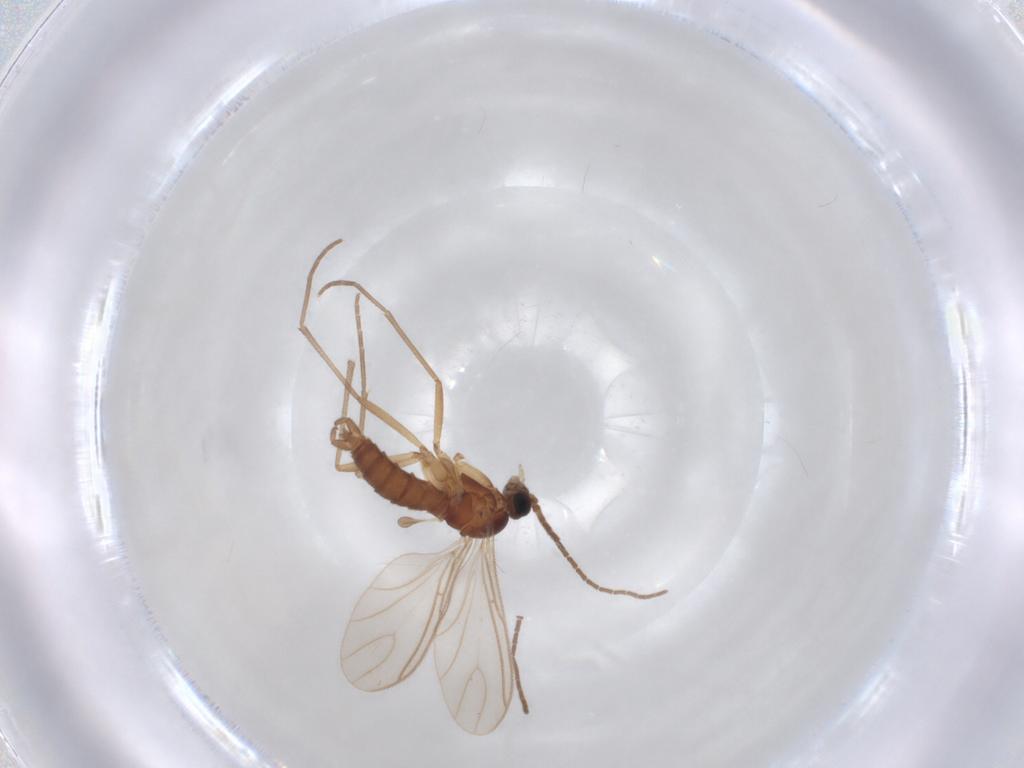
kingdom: Animalia
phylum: Arthropoda
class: Insecta
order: Diptera
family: Sciaridae
